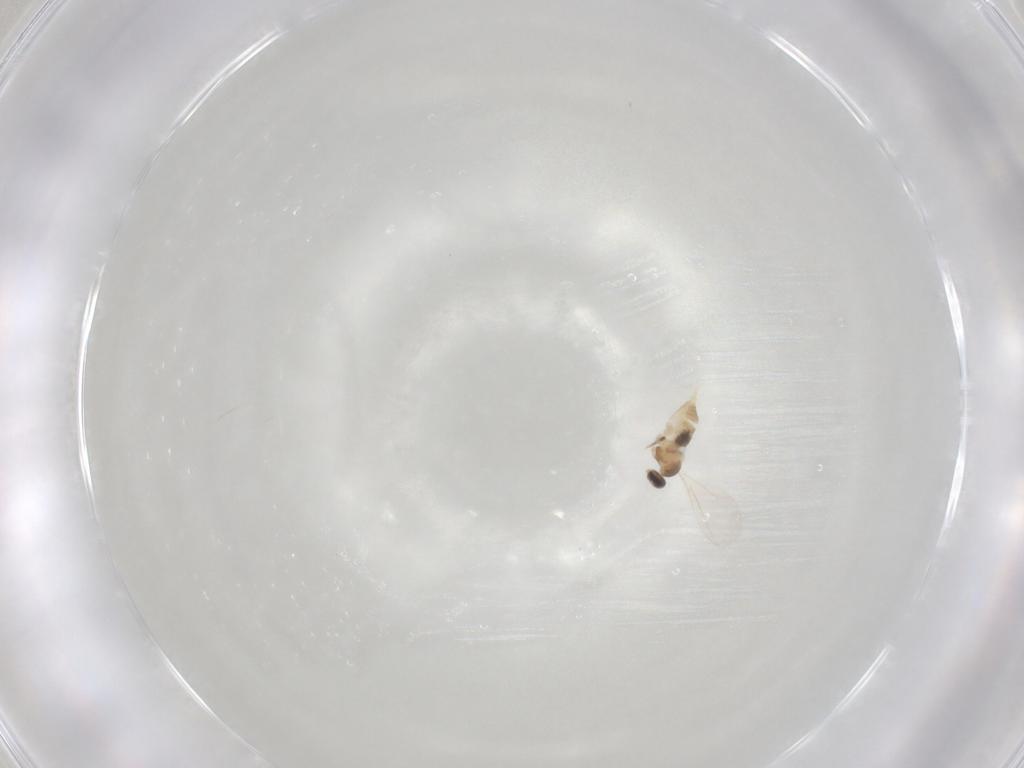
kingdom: Animalia
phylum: Arthropoda
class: Insecta
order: Diptera
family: Cecidomyiidae
